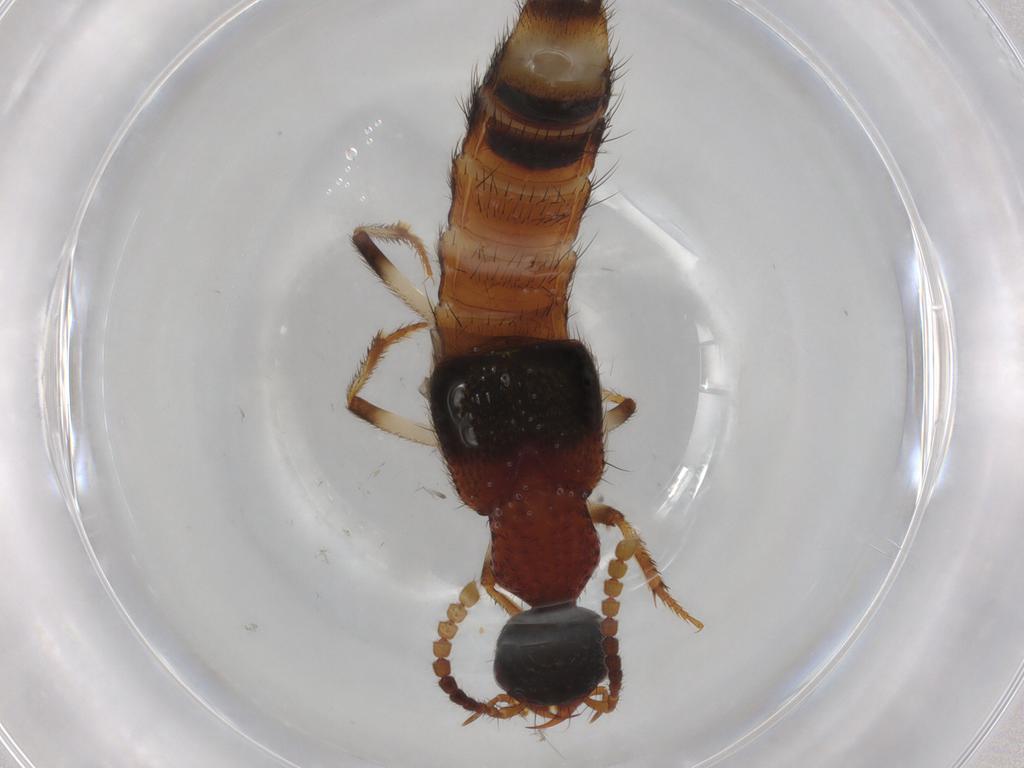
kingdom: Animalia
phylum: Arthropoda
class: Insecta
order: Coleoptera
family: Staphylinidae
